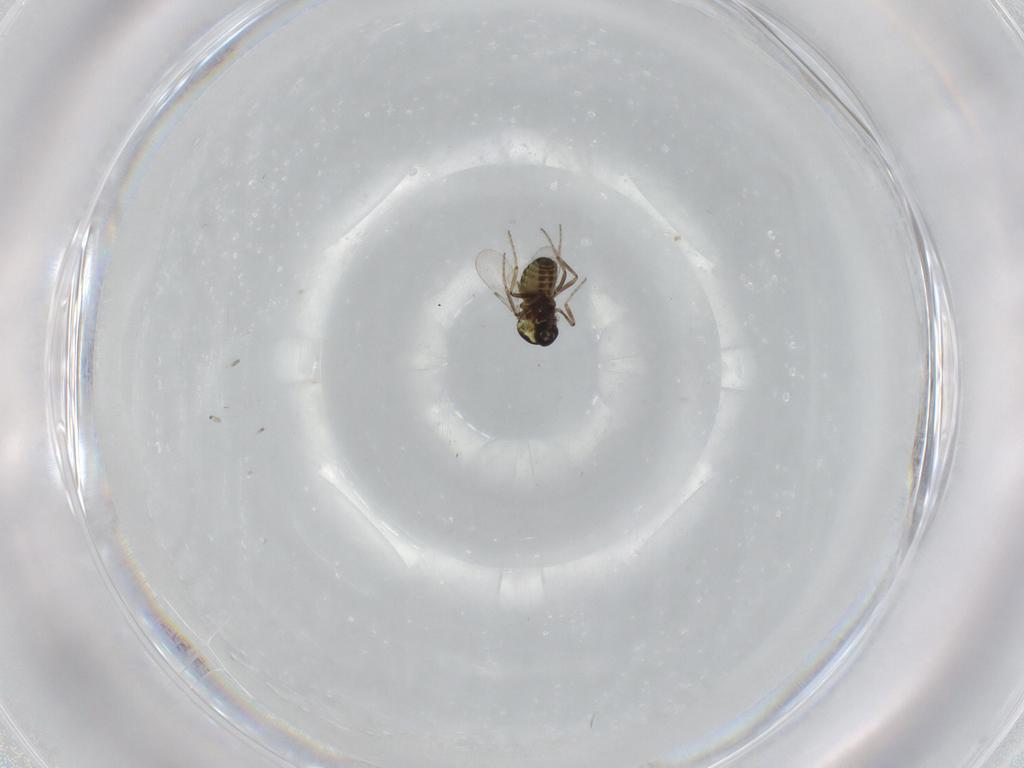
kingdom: Animalia
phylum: Arthropoda
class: Insecta
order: Diptera
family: Ceratopogonidae
